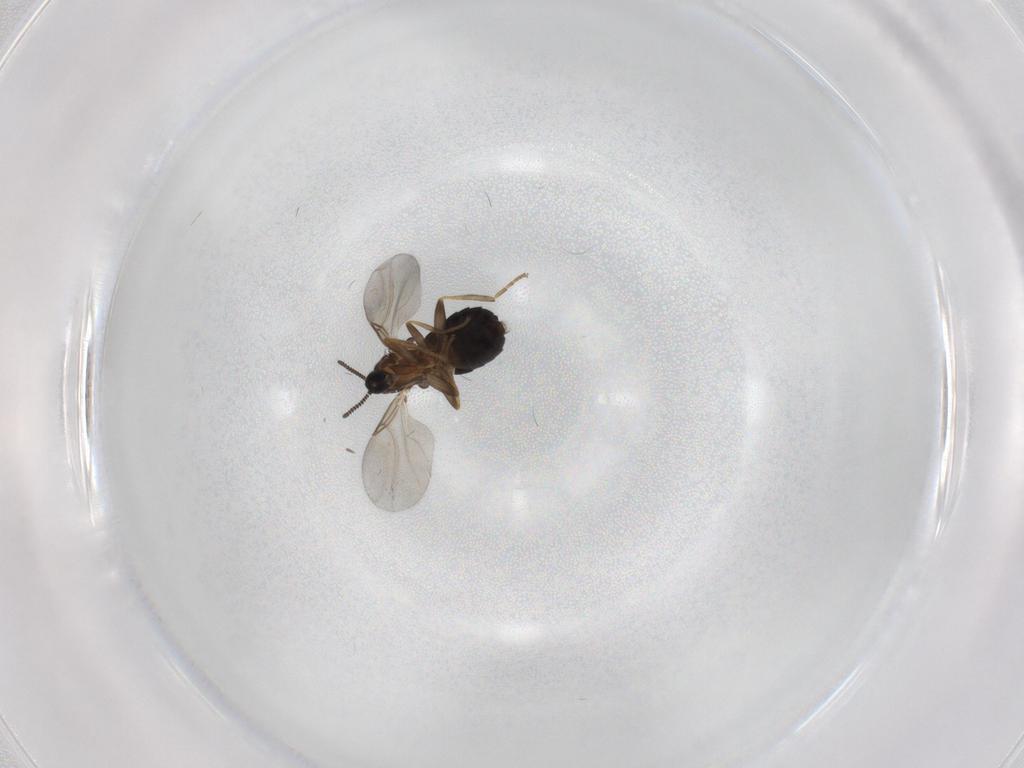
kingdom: Animalia
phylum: Arthropoda
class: Insecta
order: Diptera
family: Scatopsidae
